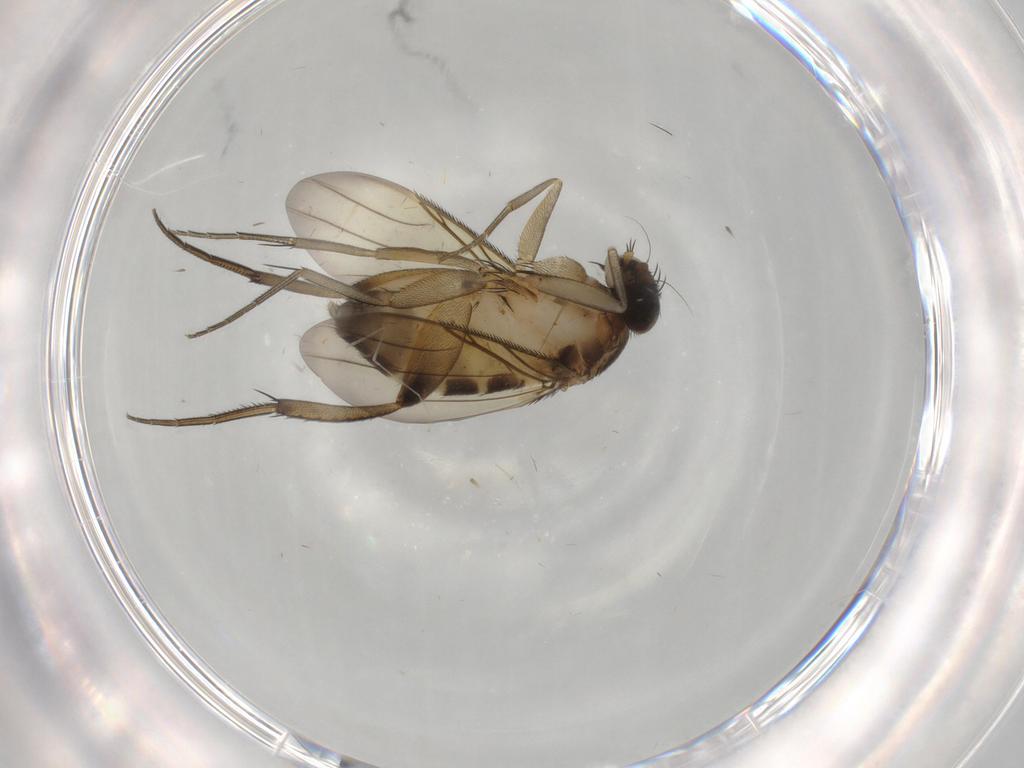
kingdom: Animalia
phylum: Arthropoda
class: Insecta
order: Diptera
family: Phoridae
